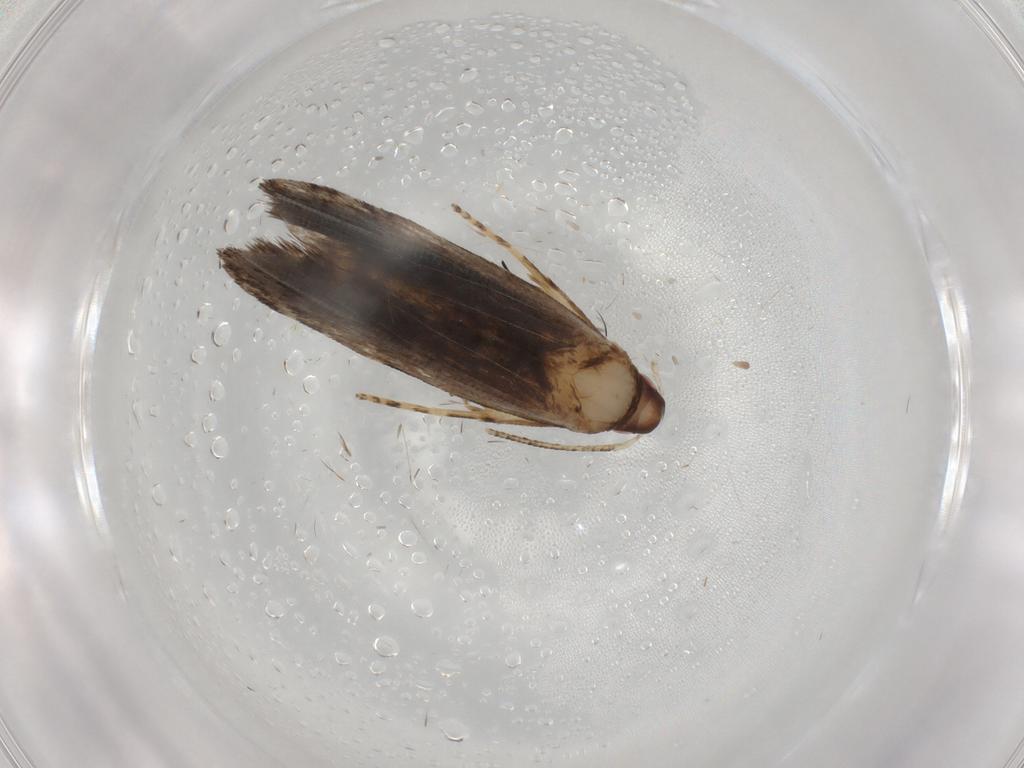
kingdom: Animalia
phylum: Arthropoda
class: Insecta
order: Lepidoptera
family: Gelechiidae
